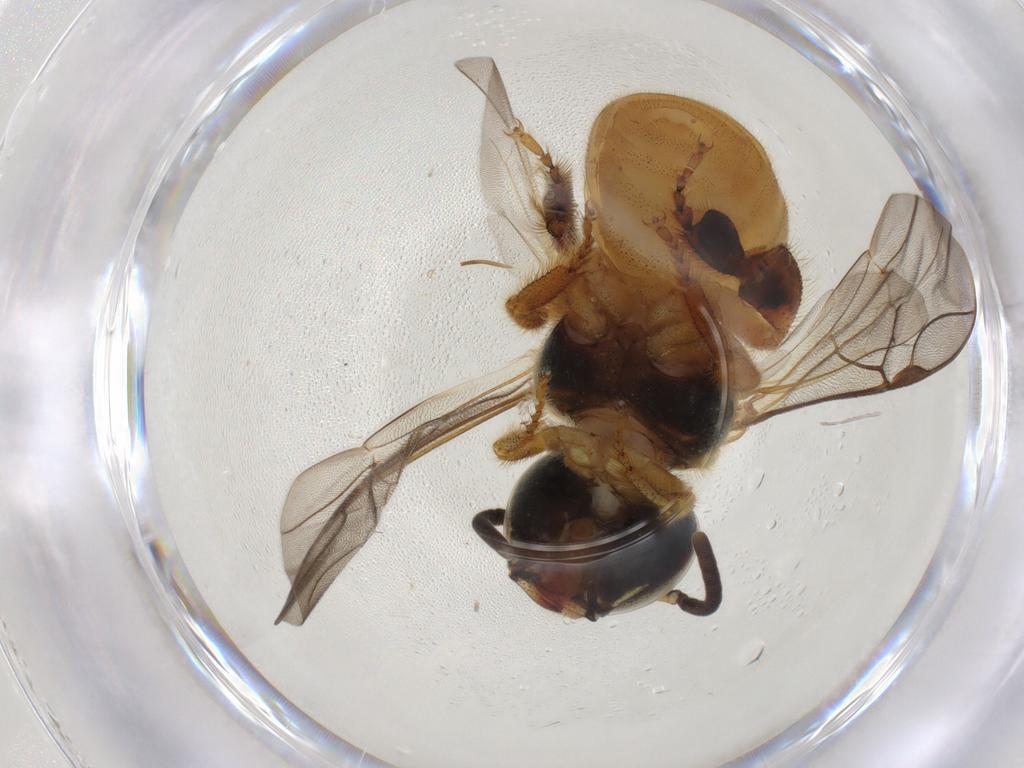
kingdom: Animalia
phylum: Arthropoda
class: Insecta
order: Hymenoptera
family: Apidae
